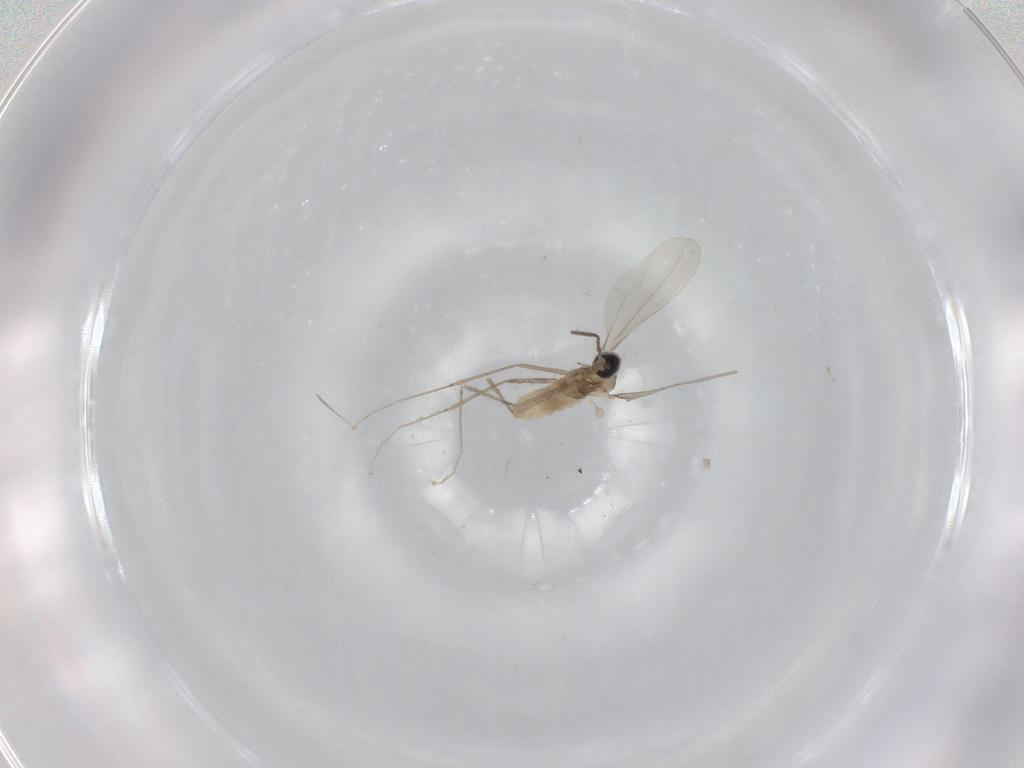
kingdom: Animalia
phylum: Arthropoda
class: Insecta
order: Diptera
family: Cecidomyiidae
